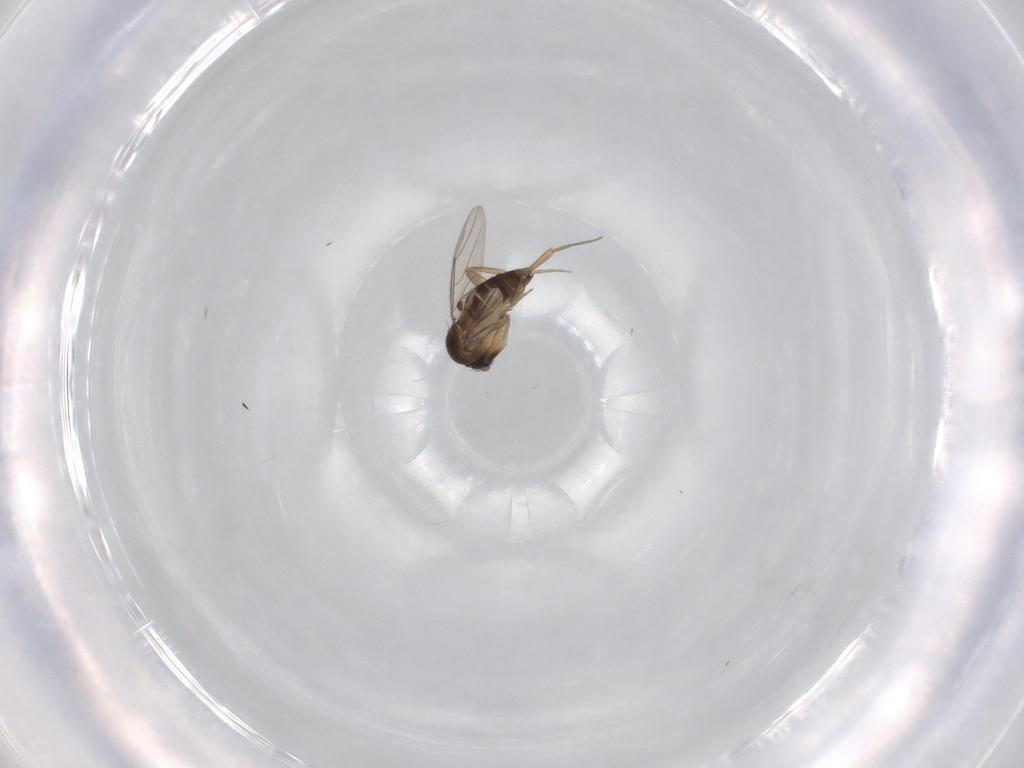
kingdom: Animalia
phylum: Arthropoda
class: Insecta
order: Diptera
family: Phoridae
